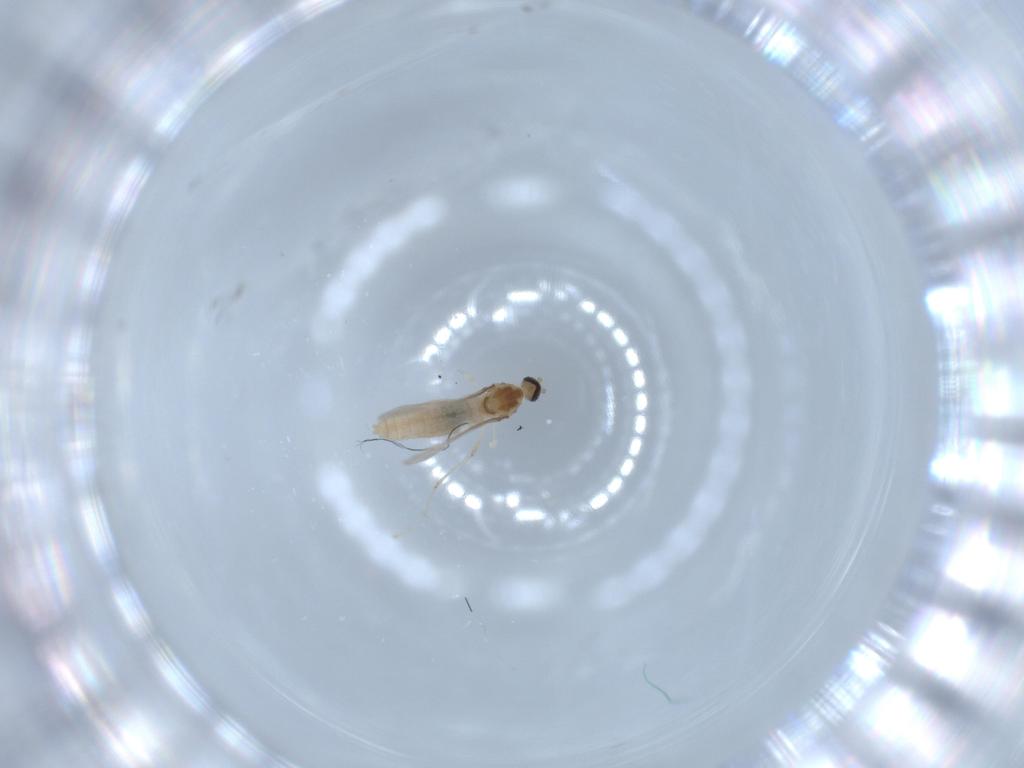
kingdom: Animalia
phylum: Arthropoda
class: Insecta
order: Diptera
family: Cecidomyiidae
